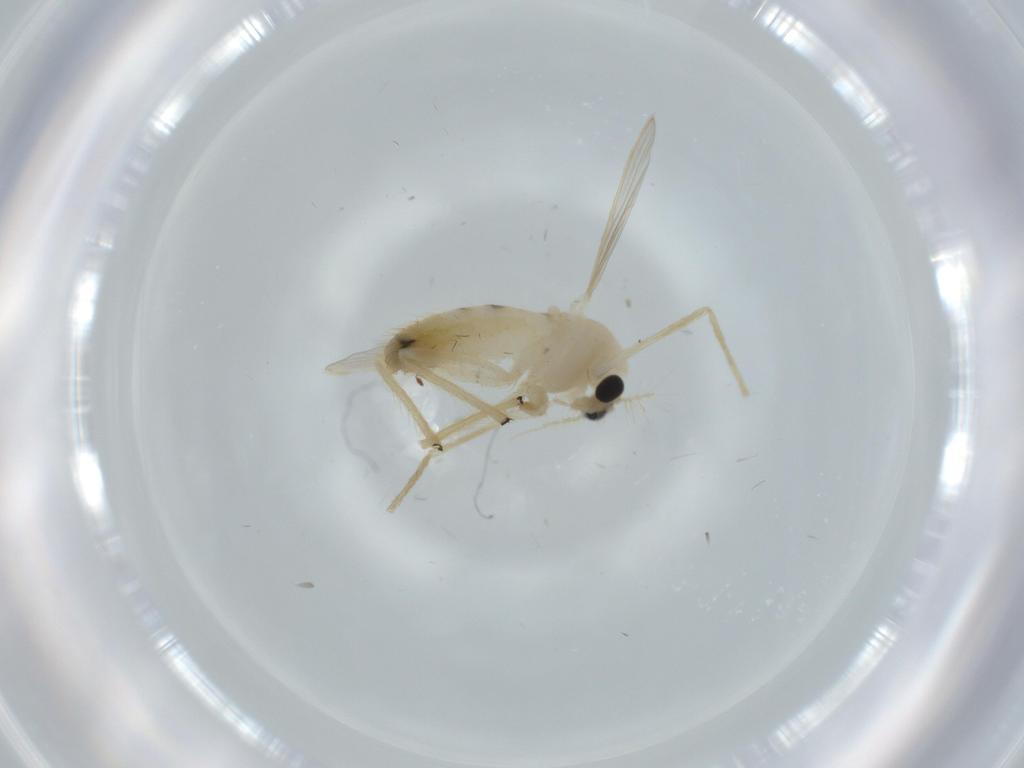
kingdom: Animalia
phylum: Arthropoda
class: Insecta
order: Diptera
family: Chironomidae
